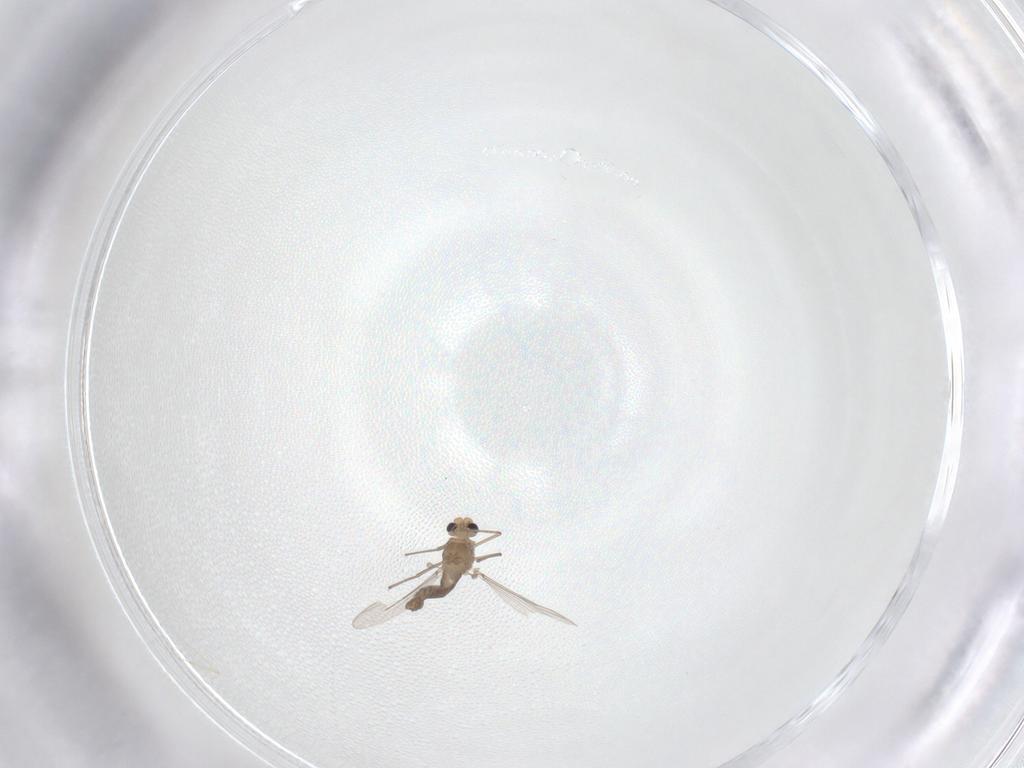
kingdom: Animalia
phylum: Arthropoda
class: Insecta
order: Diptera
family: Chironomidae
